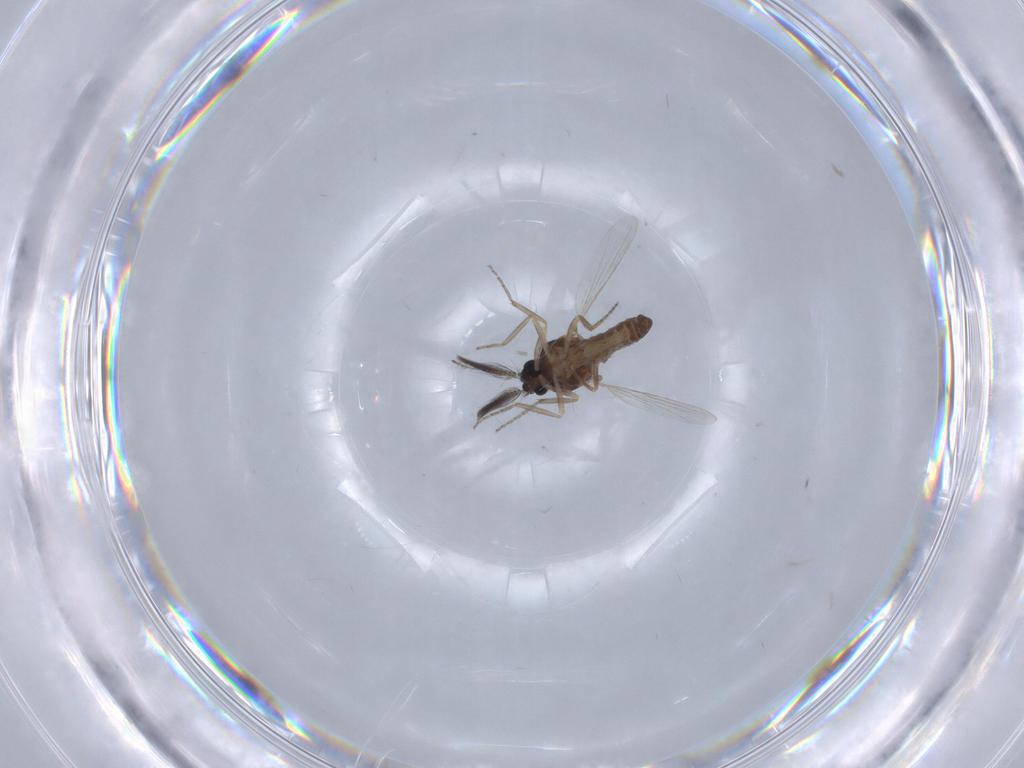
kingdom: Animalia
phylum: Arthropoda
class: Insecta
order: Diptera
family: Ceratopogonidae
